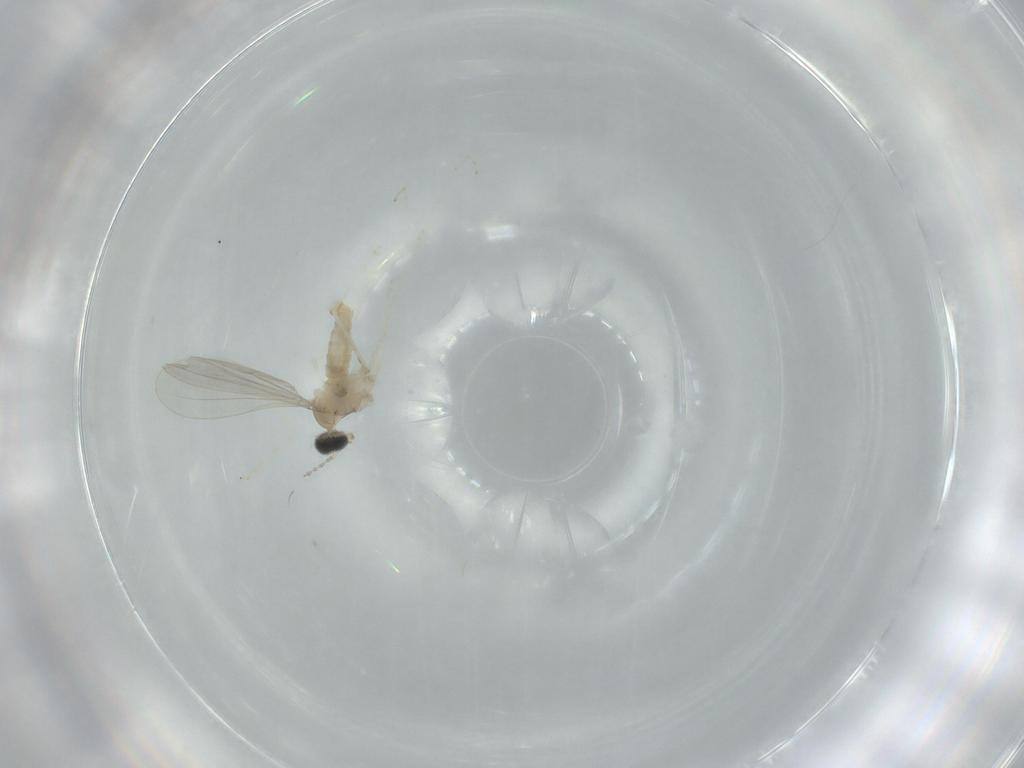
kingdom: Animalia
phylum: Arthropoda
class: Insecta
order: Diptera
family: Cecidomyiidae
